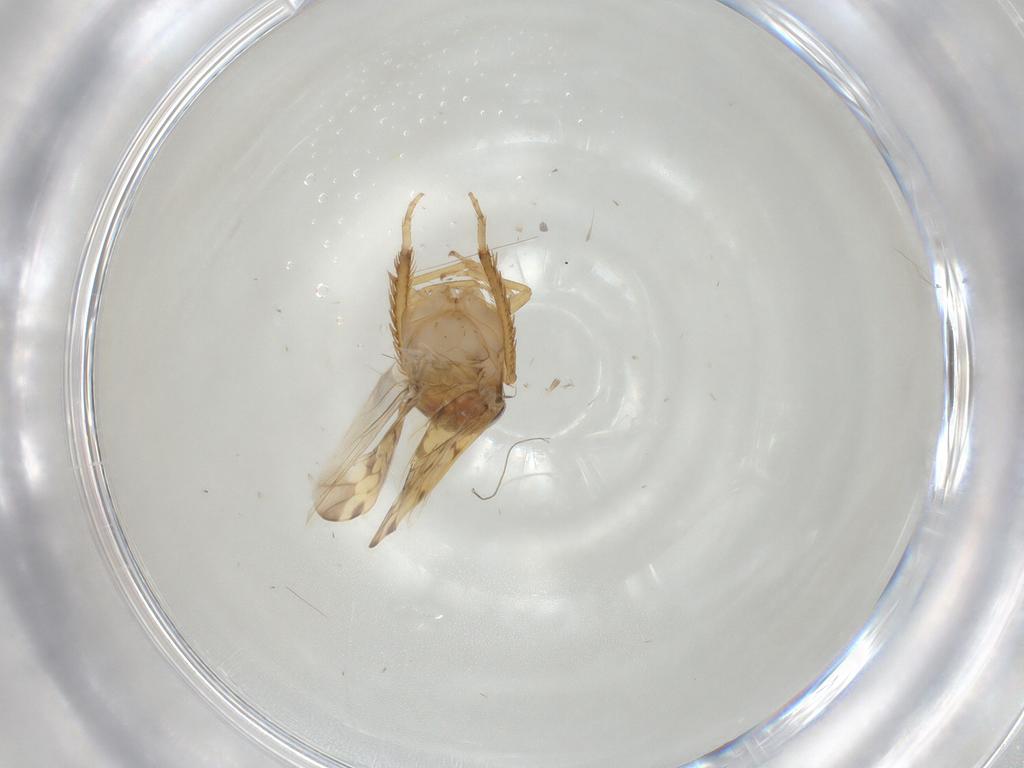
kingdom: Animalia
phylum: Arthropoda
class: Insecta
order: Hemiptera
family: Cicadellidae
